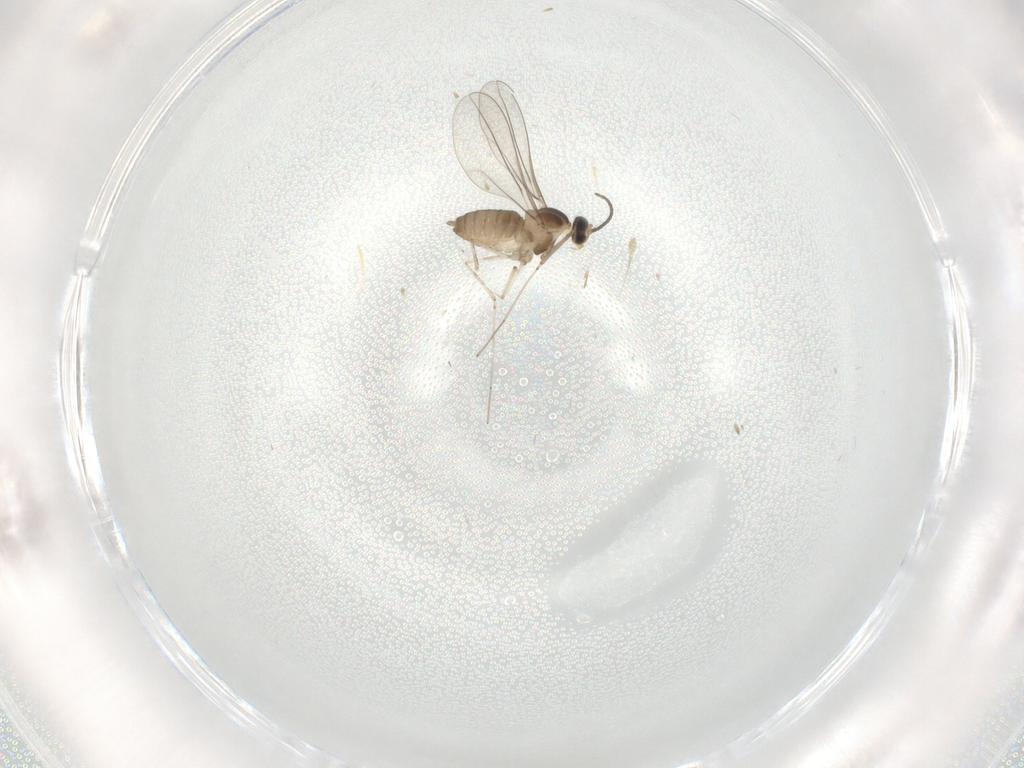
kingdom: Animalia
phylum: Arthropoda
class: Insecta
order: Diptera
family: Cecidomyiidae
